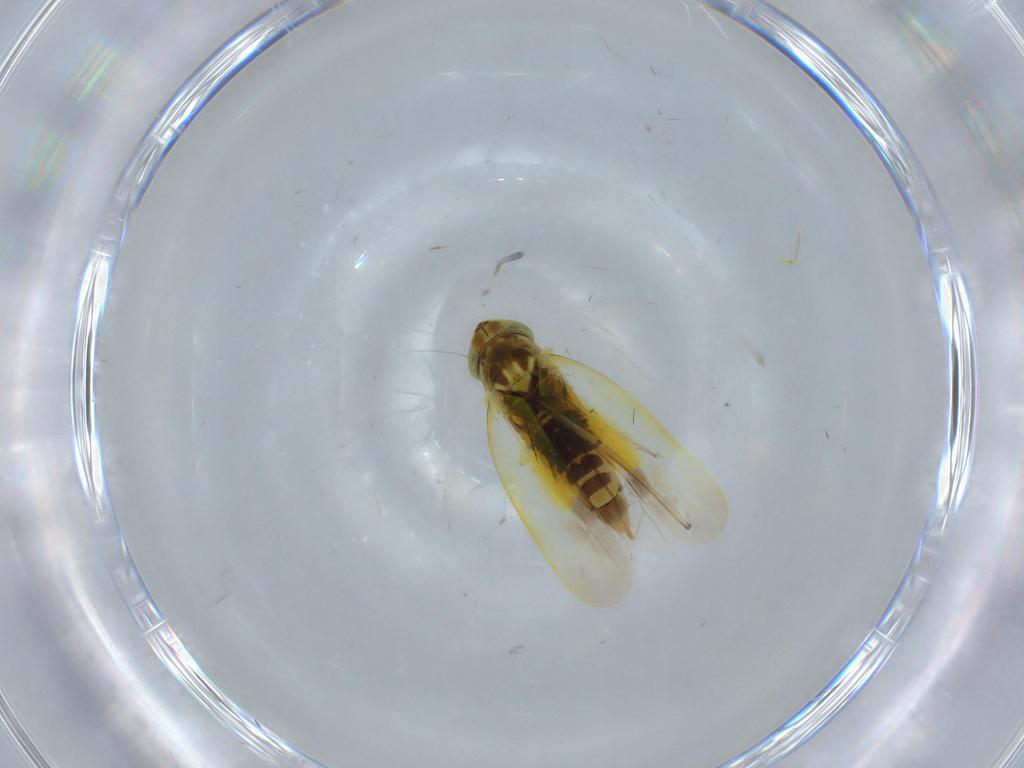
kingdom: Animalia
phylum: Arthropoda
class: Insecta
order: Hemiptera
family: Cicadellidae
